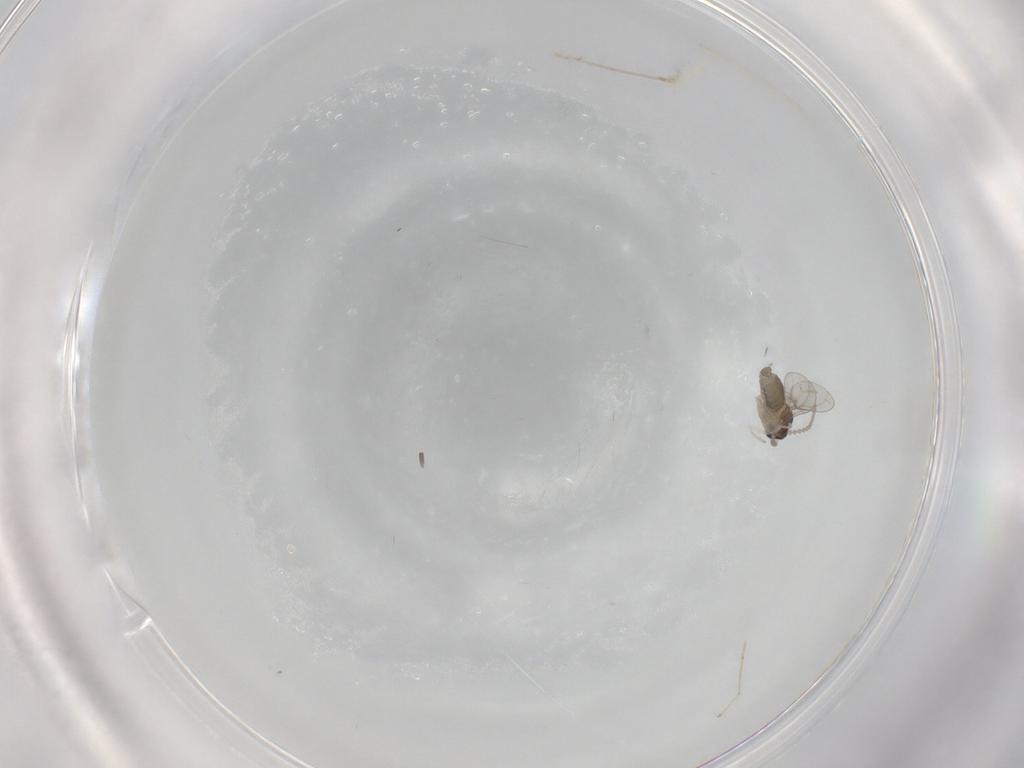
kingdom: Animalia
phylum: Arthropoda
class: Insecta
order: Diptera
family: Cecidomyiidae
